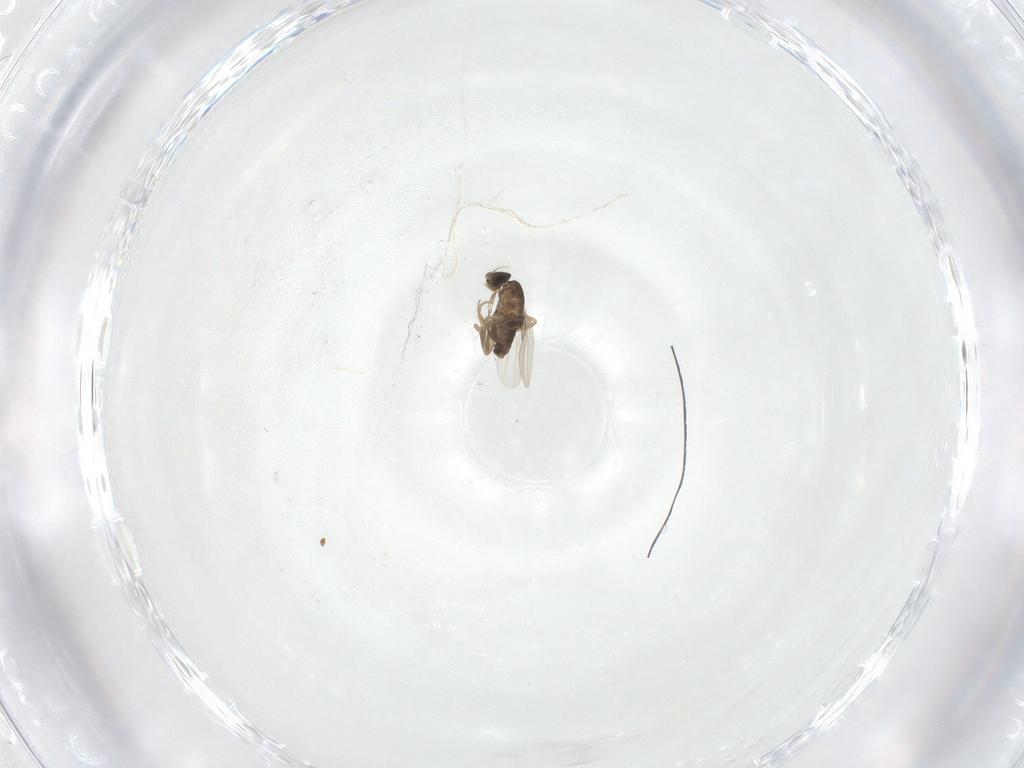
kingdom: Animalia
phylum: Arthropoda
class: Insecta
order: Diptera
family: Phoridae
